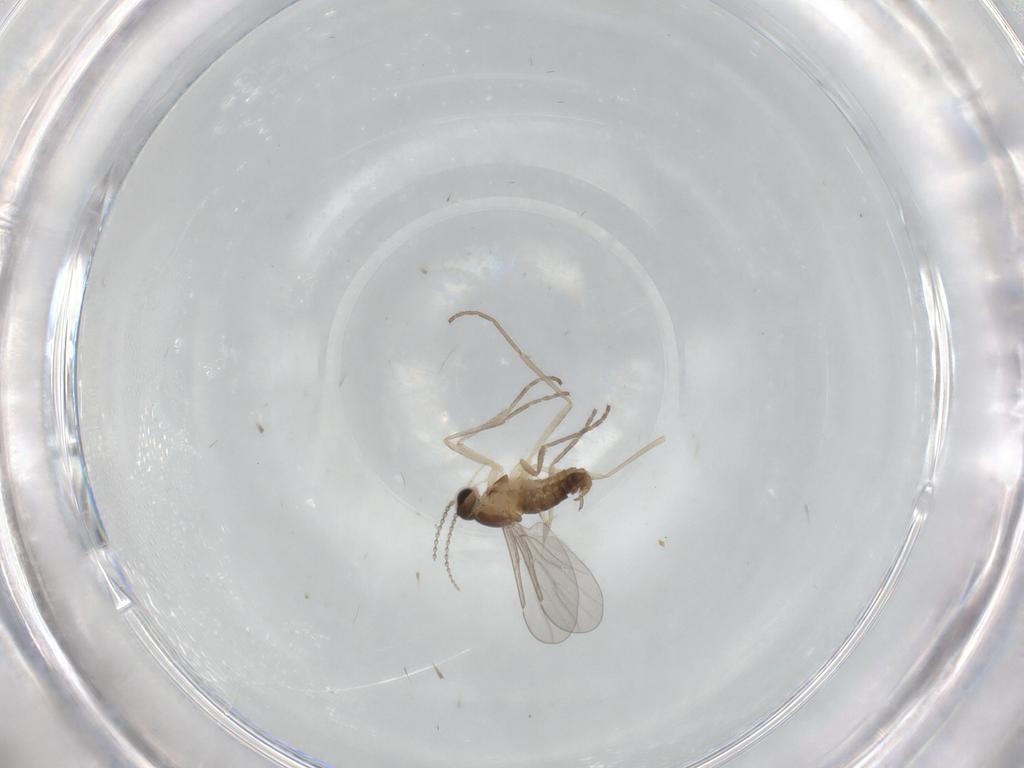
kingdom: Animalia
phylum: Arthropoda
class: Insecta
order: Diptera
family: Cecidomyiidae
